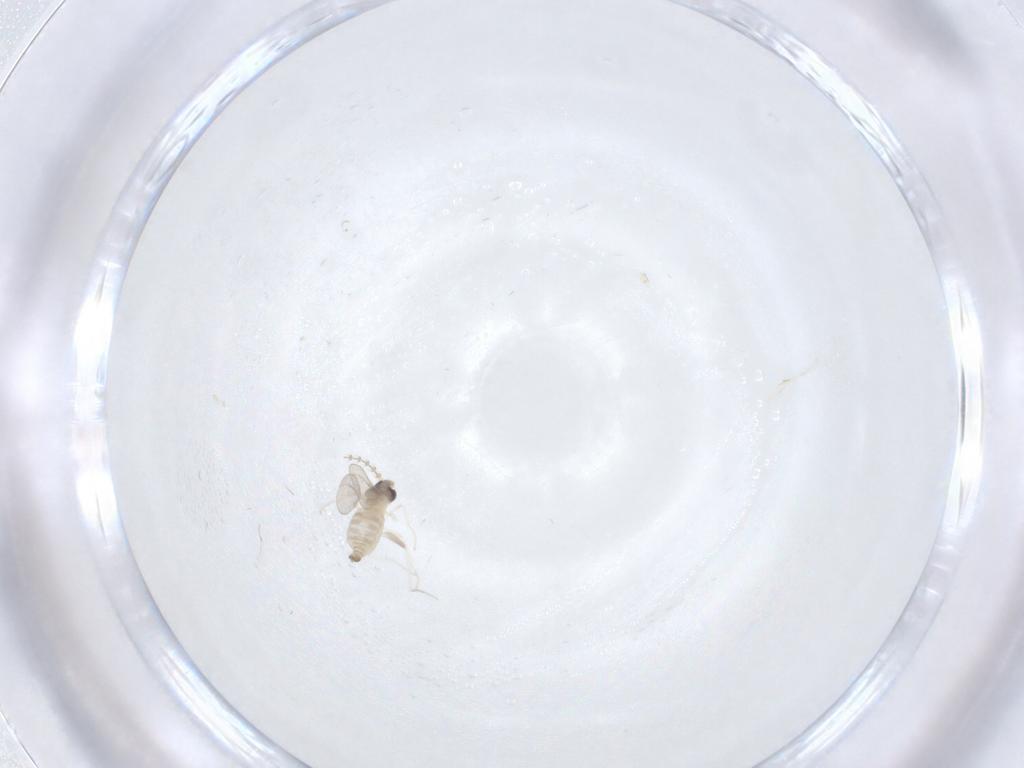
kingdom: Animalia
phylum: Arthropoda
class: Insecta
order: Diptera
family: Cecidomyiidae
